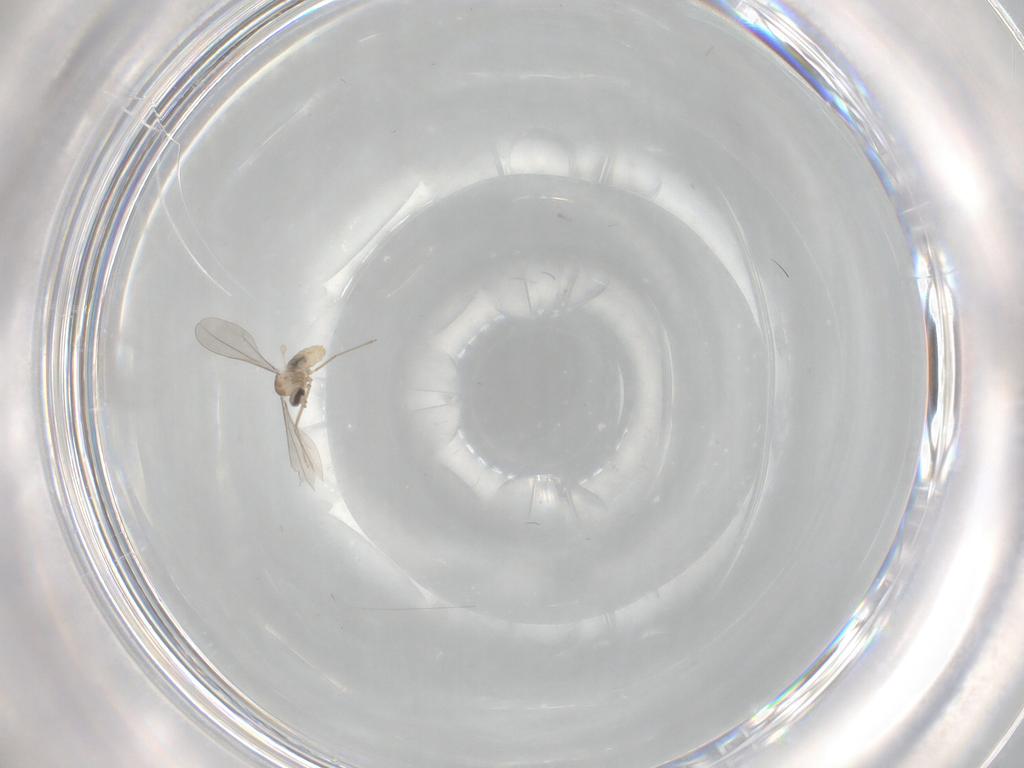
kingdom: Animalia
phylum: Arthropoda
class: Insecta
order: Diptera
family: Cecidomyiidae
